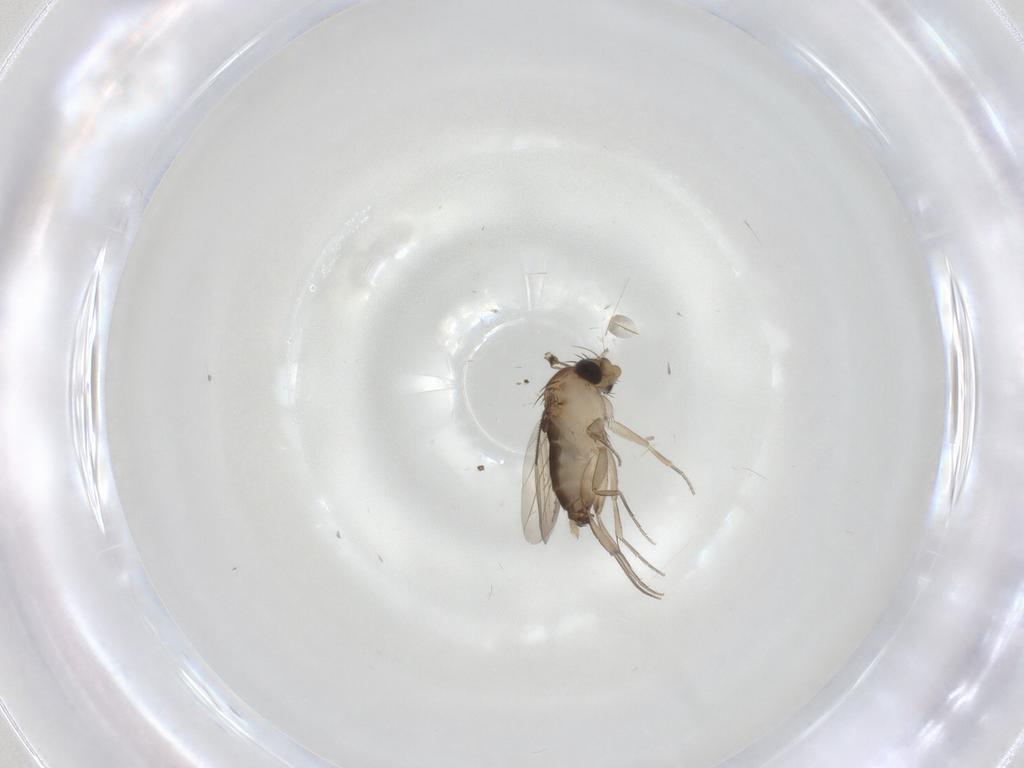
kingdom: Animalia
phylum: Arthropoda
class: Insecta
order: Diptera
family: Phoridae
